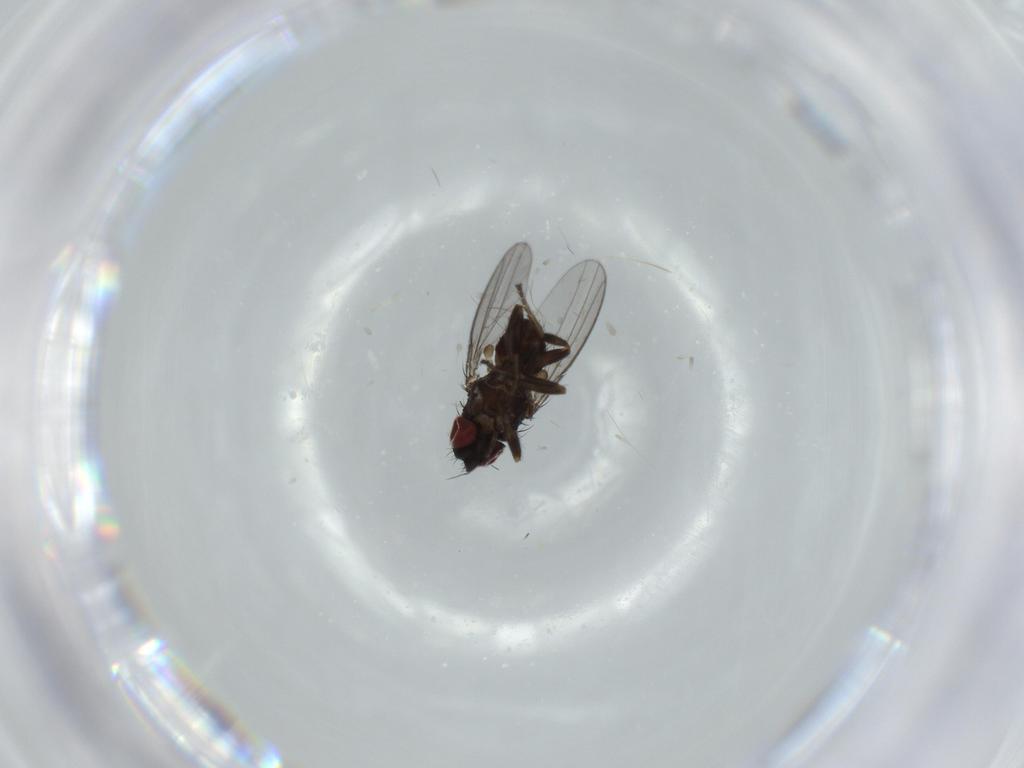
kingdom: Animalia
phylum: Arthropoda
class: Insecta
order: Diptera
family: Milichiidae
